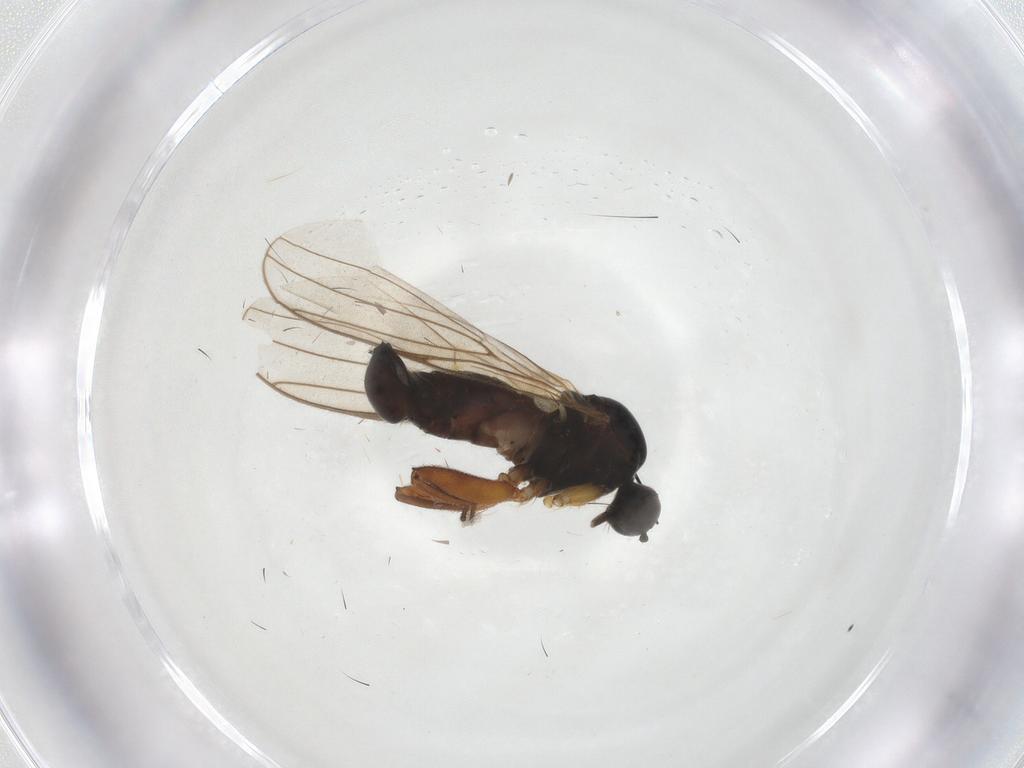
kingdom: Animalia
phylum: Arthropoda
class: Insecta
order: Diptera
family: Hybotidae
